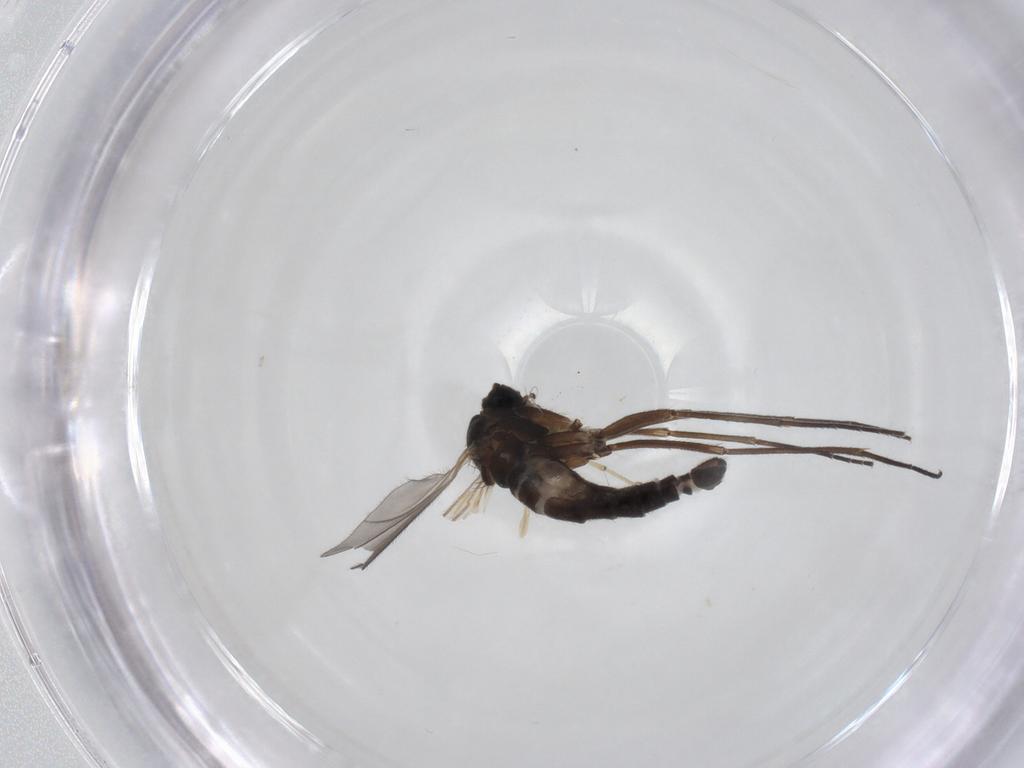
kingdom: Animalia
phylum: Arthropoda
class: Insecta
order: Diptera
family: Sciaridae
